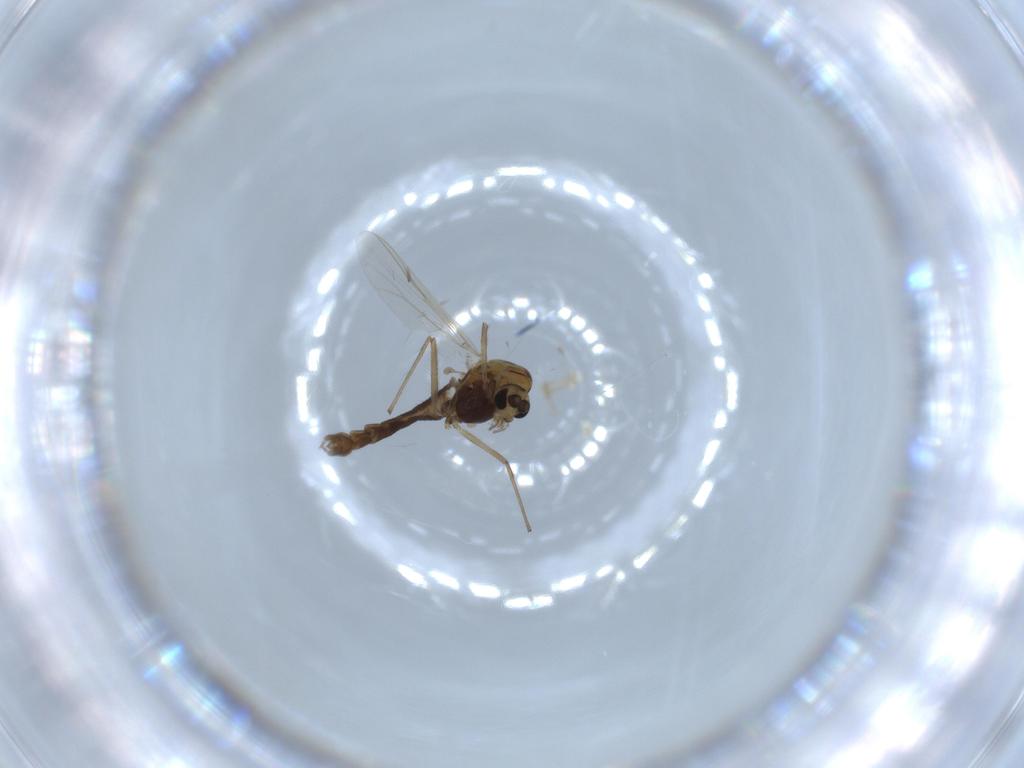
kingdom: Animalia
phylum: Arthropoda
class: Insecta
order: Diptera
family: Chironomidae
